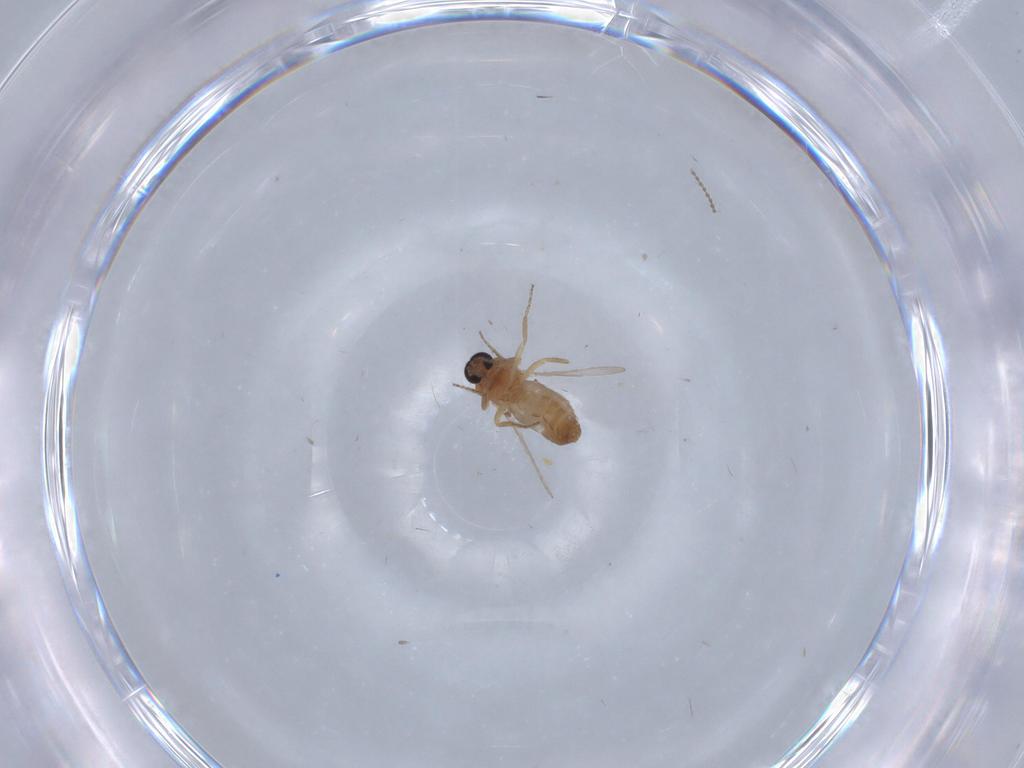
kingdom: Animalia
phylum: Arthropoda
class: Insecta
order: Diptera
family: Ceratopogonidae
